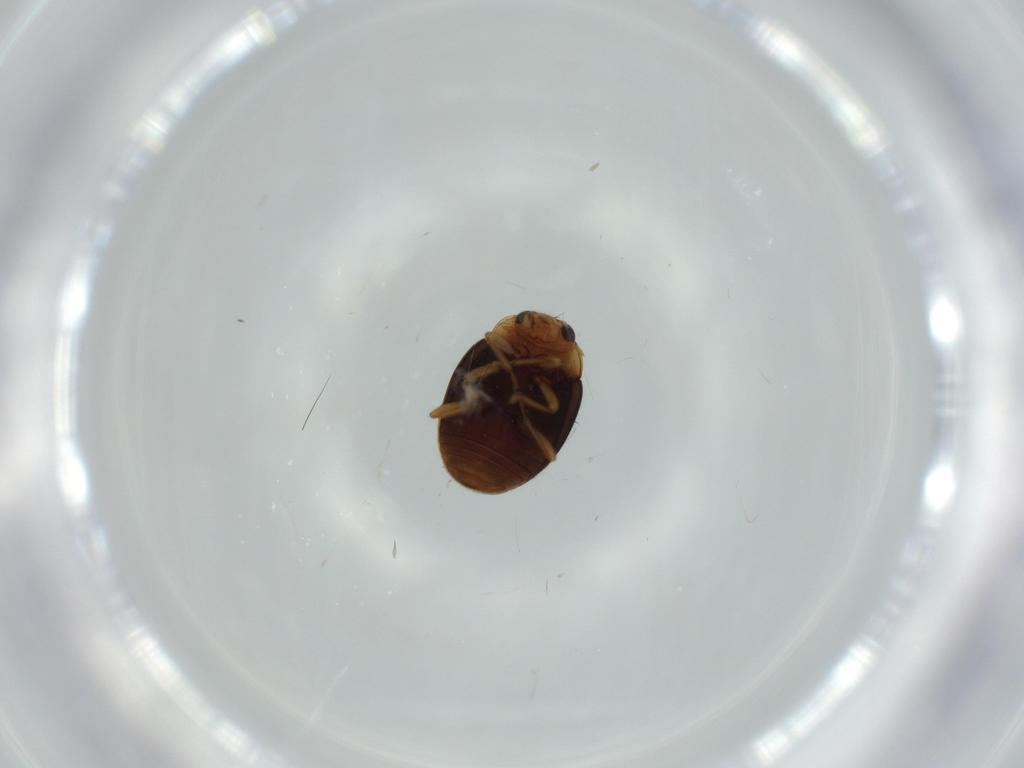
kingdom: Animalia
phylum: Arthropoda
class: Insecta
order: Coleoptera
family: Coccinellidae
